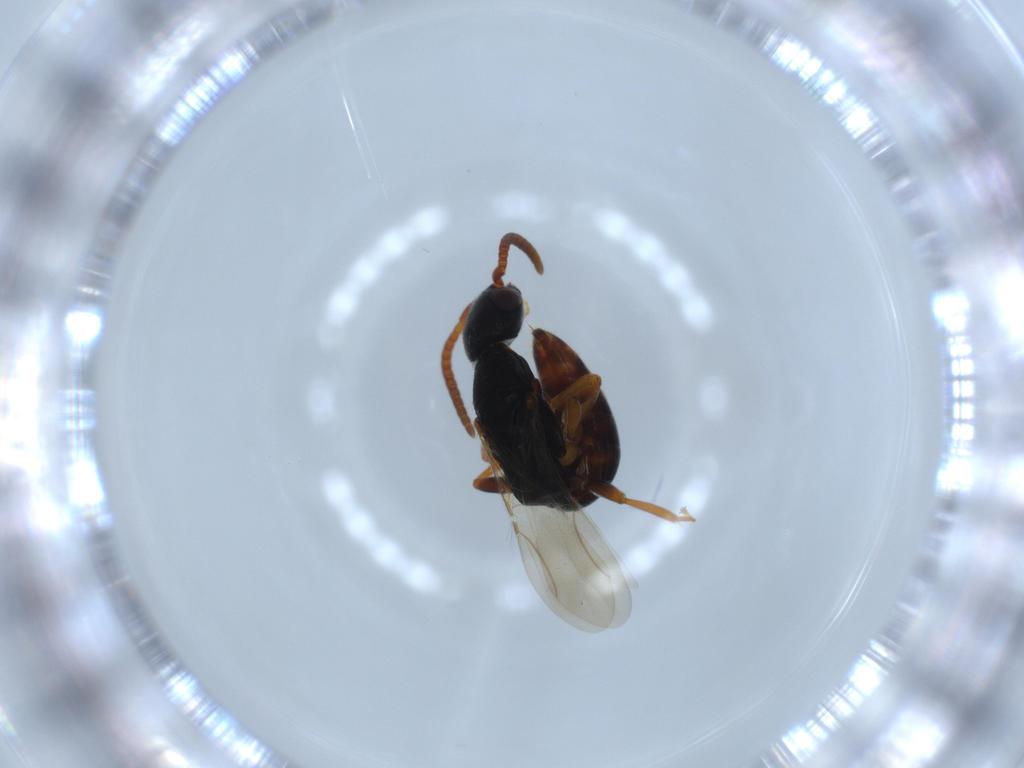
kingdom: Animalia
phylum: Arthropoda
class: Insecta
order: Hymenoptera
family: Bethylidae
